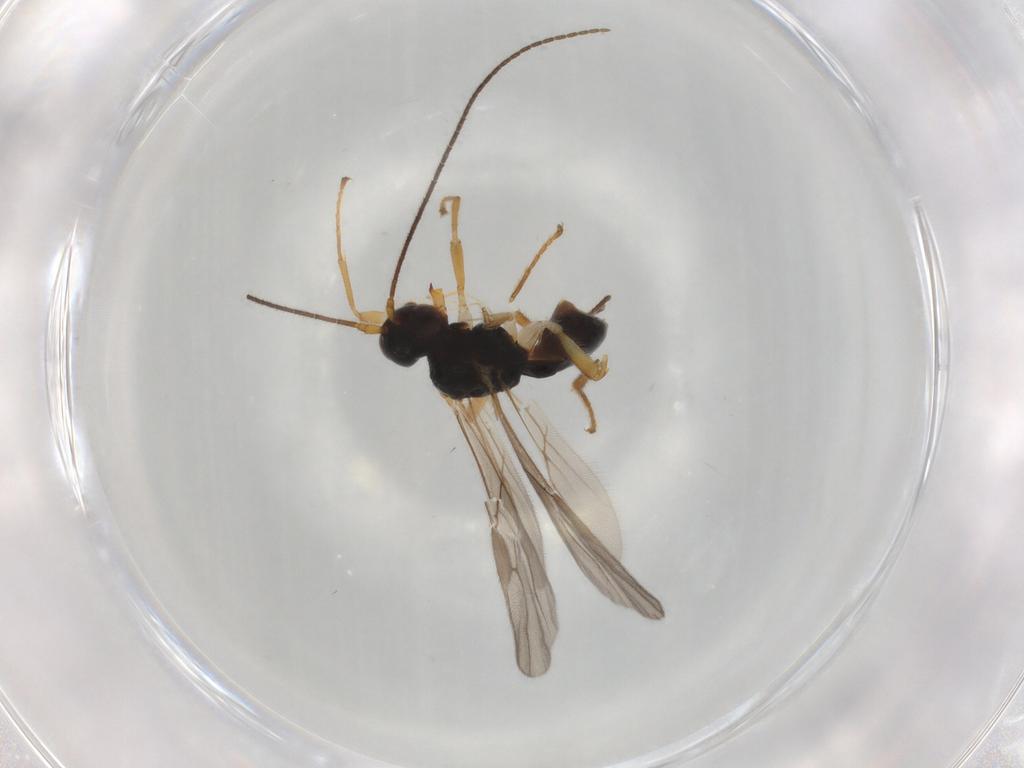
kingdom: Animalia
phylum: Arthropoda
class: Insecta
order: Hymenoptera
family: Braconidae
